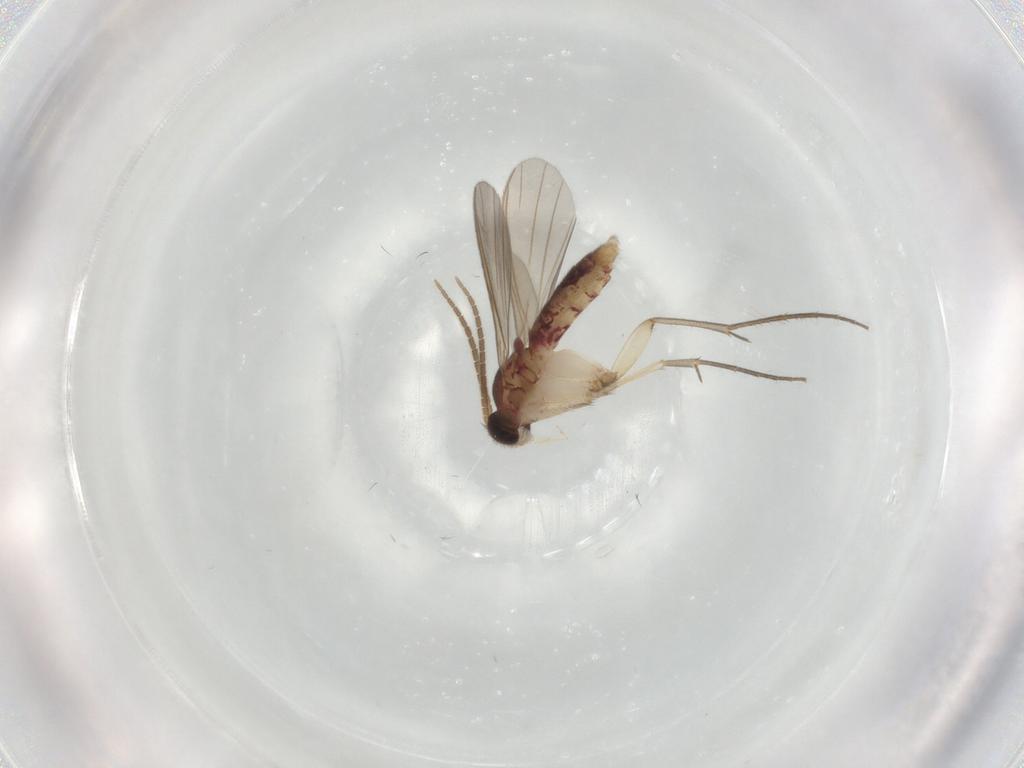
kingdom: Animalia
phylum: Arthropoda
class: Insecta
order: Diptera
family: Mycetophilidae
